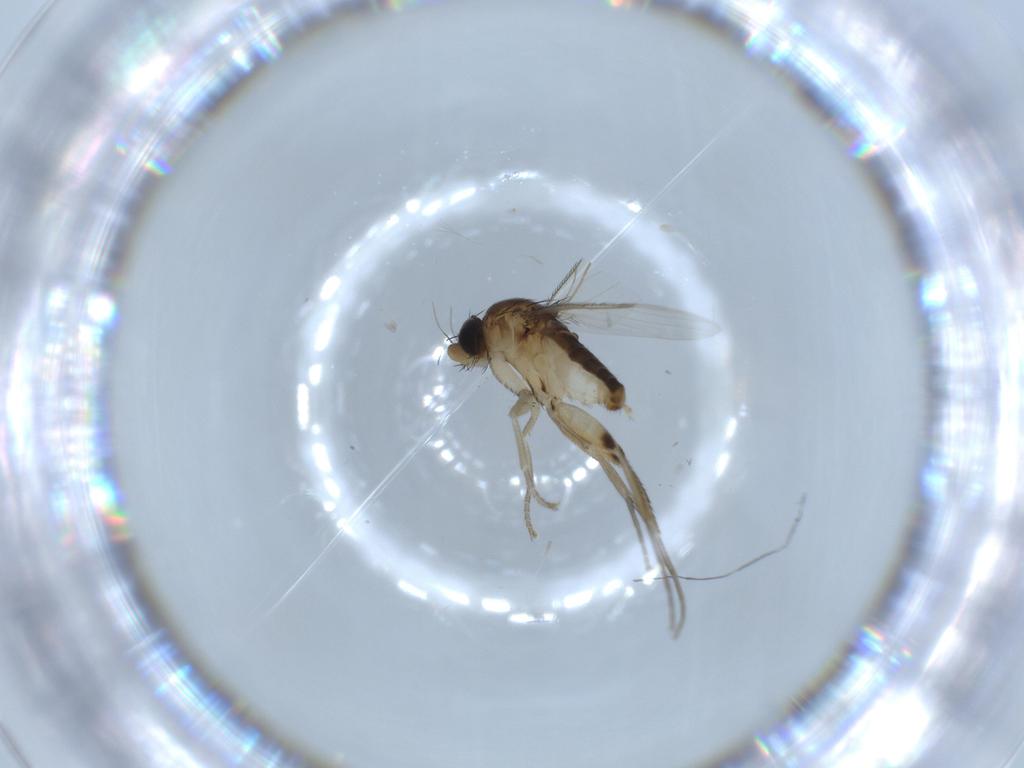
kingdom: Animalia
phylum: Arthropoda
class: Insecta
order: Diptera
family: Phoridae
